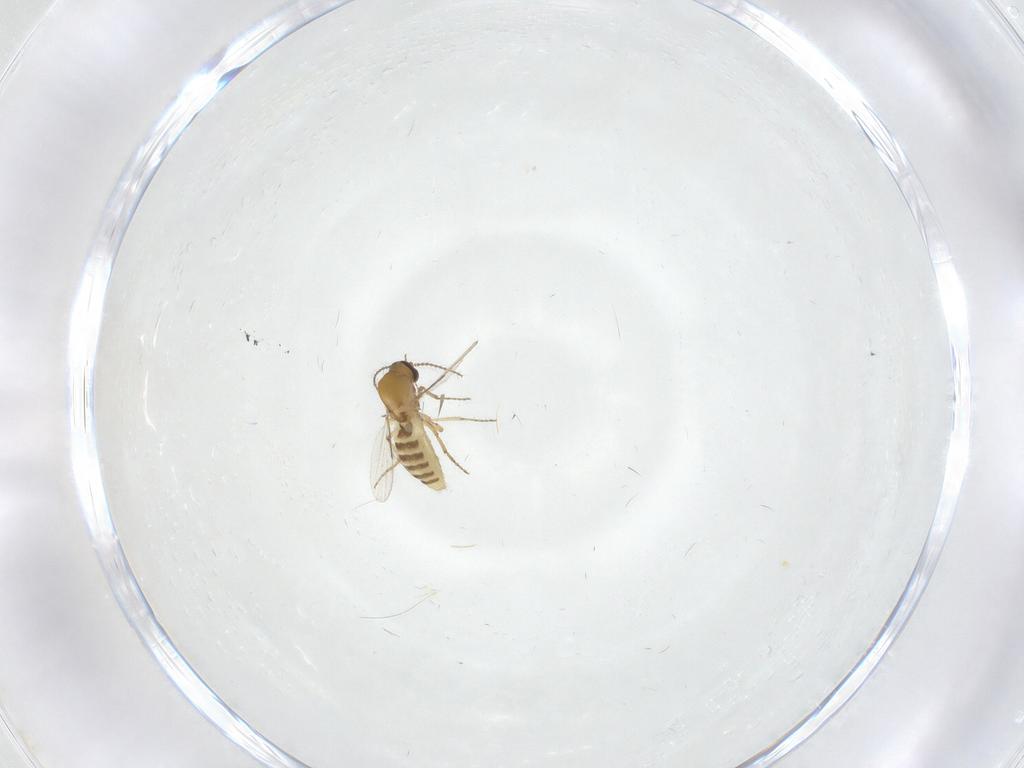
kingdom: Animalia
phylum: Arthropoda
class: Insecta
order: Diptera
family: Ceratopogonidae
